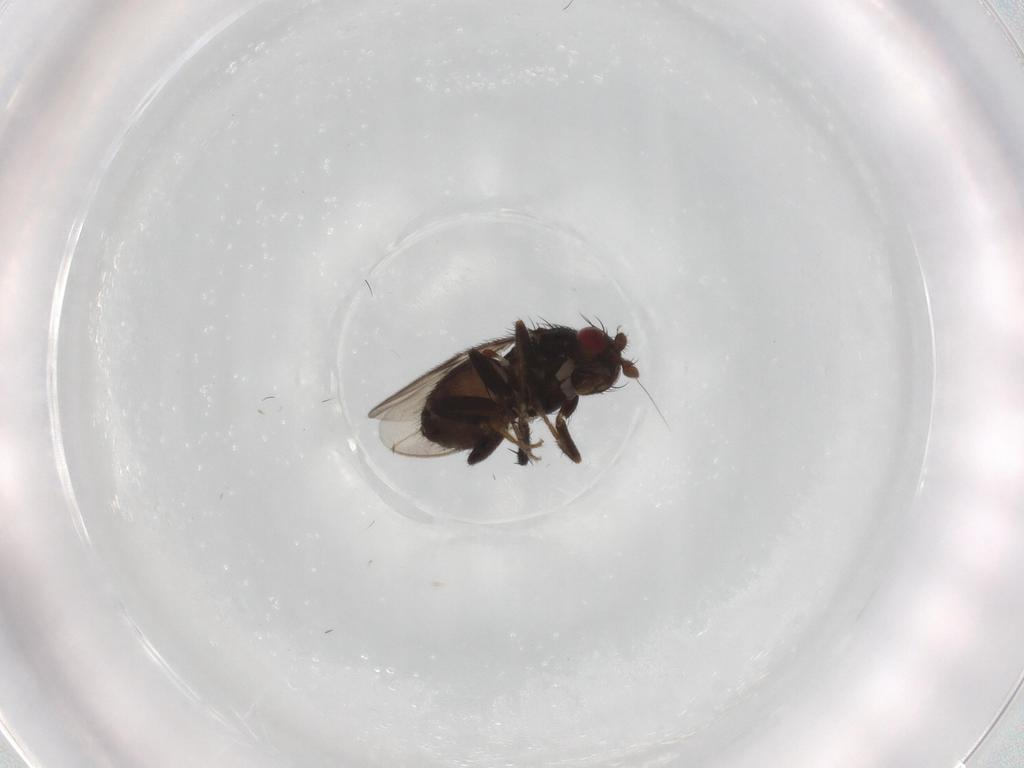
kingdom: Animalia
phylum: Arthropoda
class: Insecta
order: Diptera
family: Sphaeroceridae
